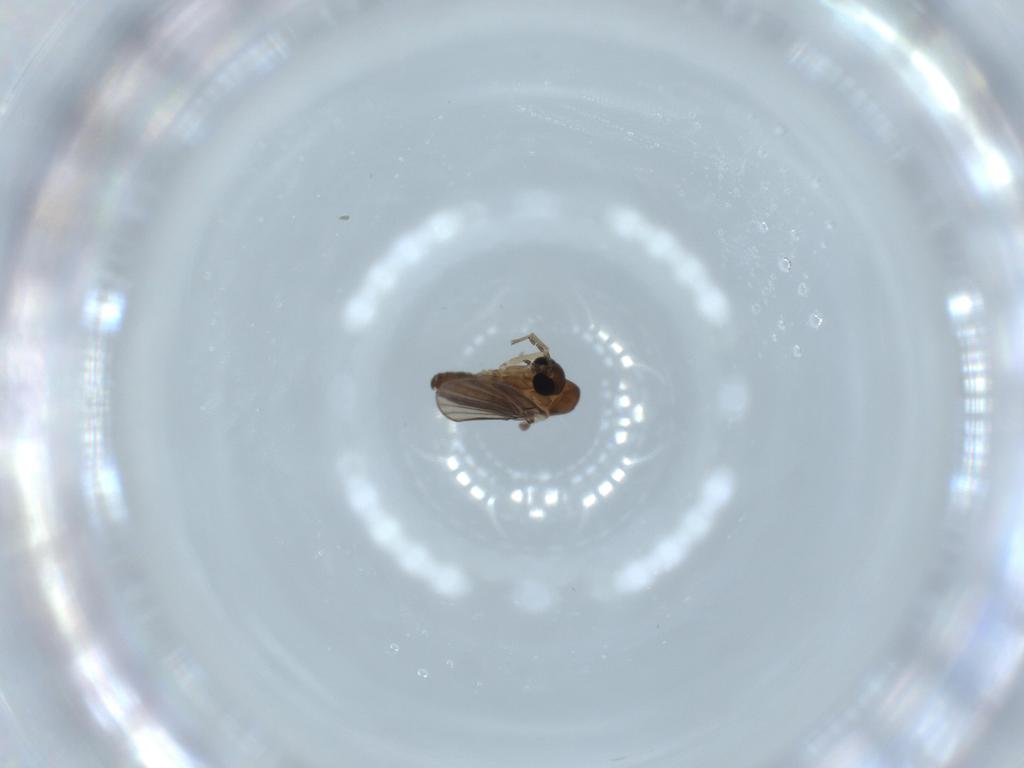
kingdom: Animalia
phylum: Arthropoda
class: Insecta
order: Diptera
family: Psychodidae
